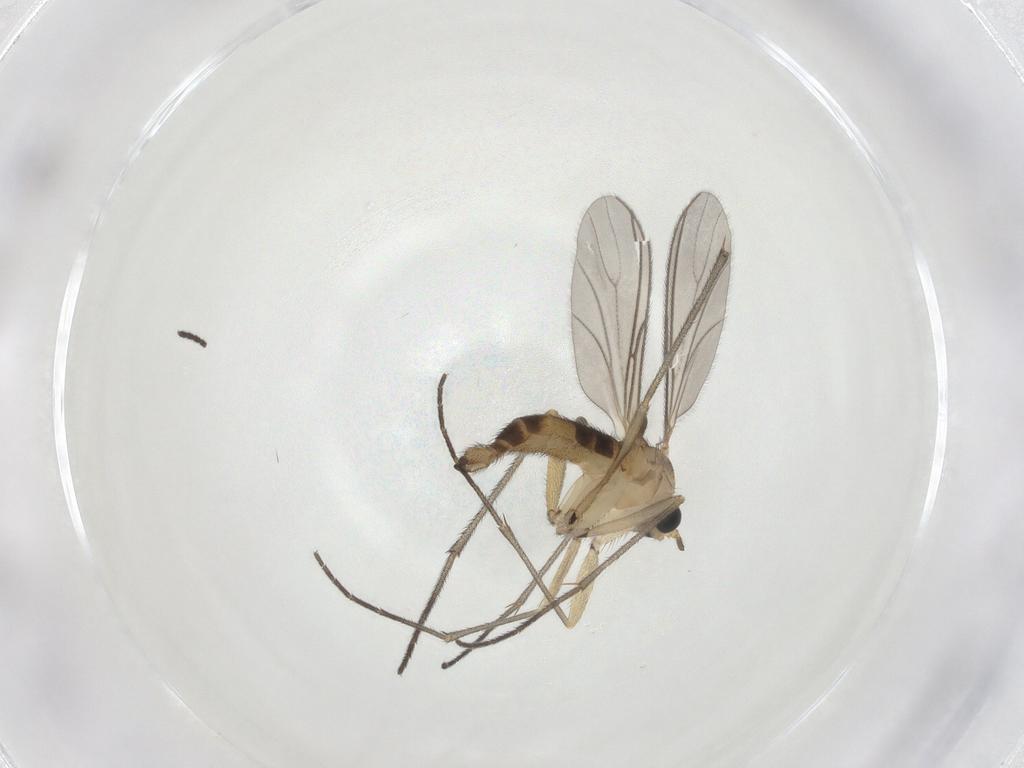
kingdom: Animalia
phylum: Arthropoda
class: Insecta
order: Diptera
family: Sciaridae
